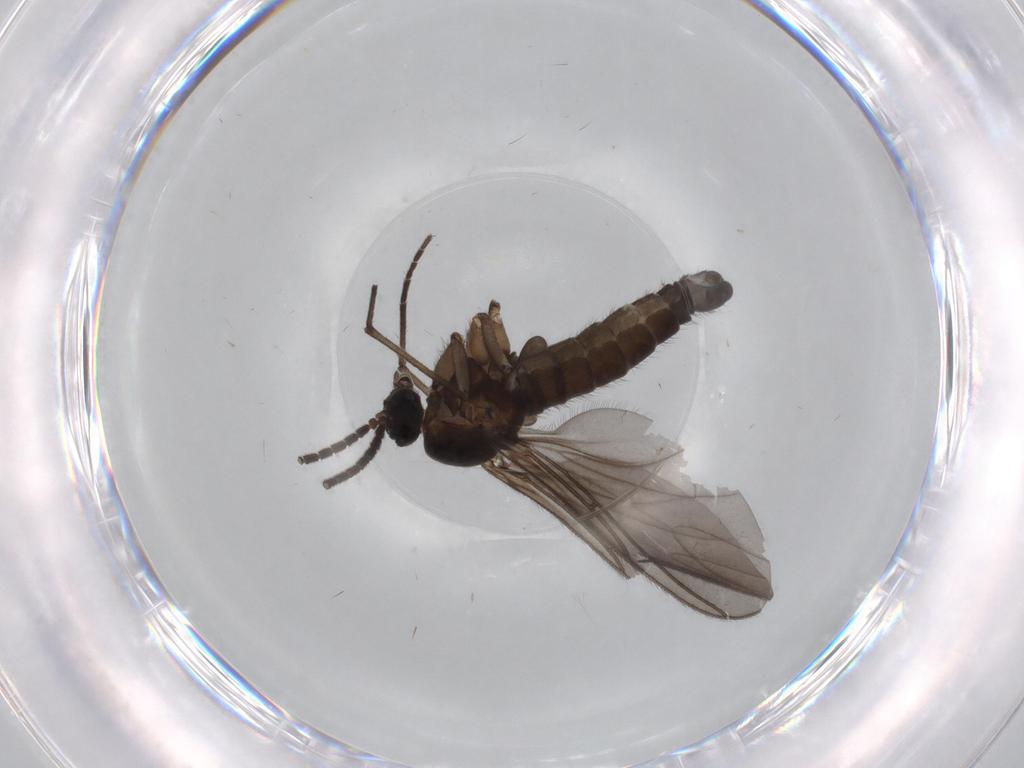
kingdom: Animalia
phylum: Arthropoda
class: Insecta
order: Diptera
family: Sciaridae
